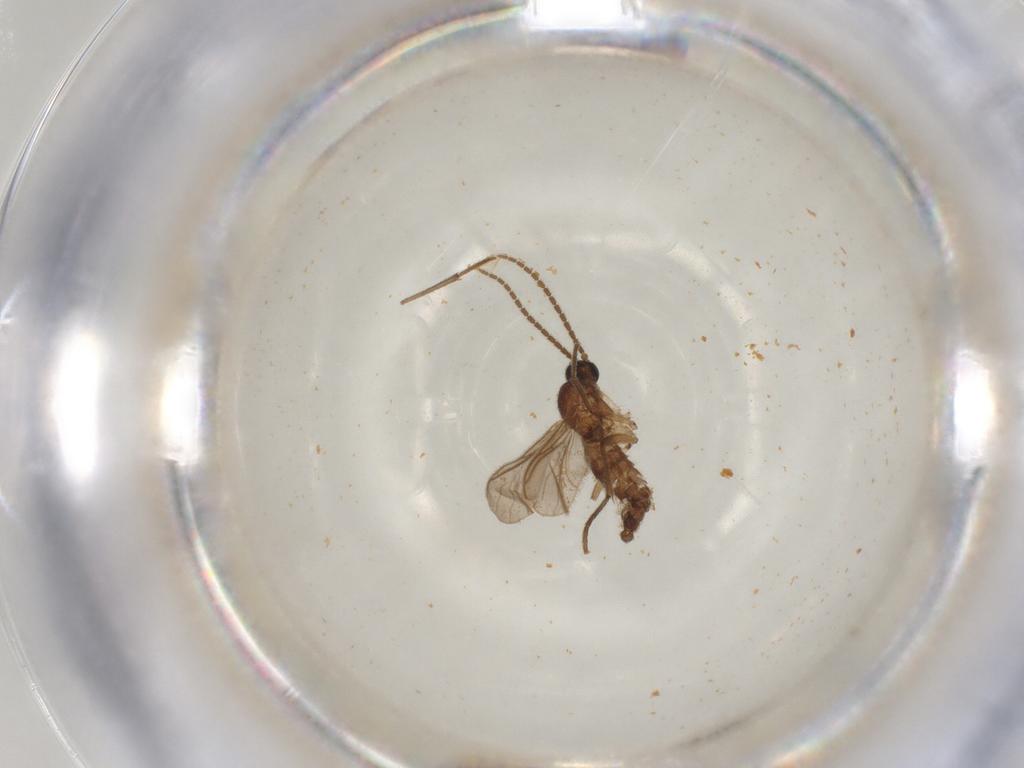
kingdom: Animalia
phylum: Arthropoda
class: Insecta
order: Diptera
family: Sciaridae
